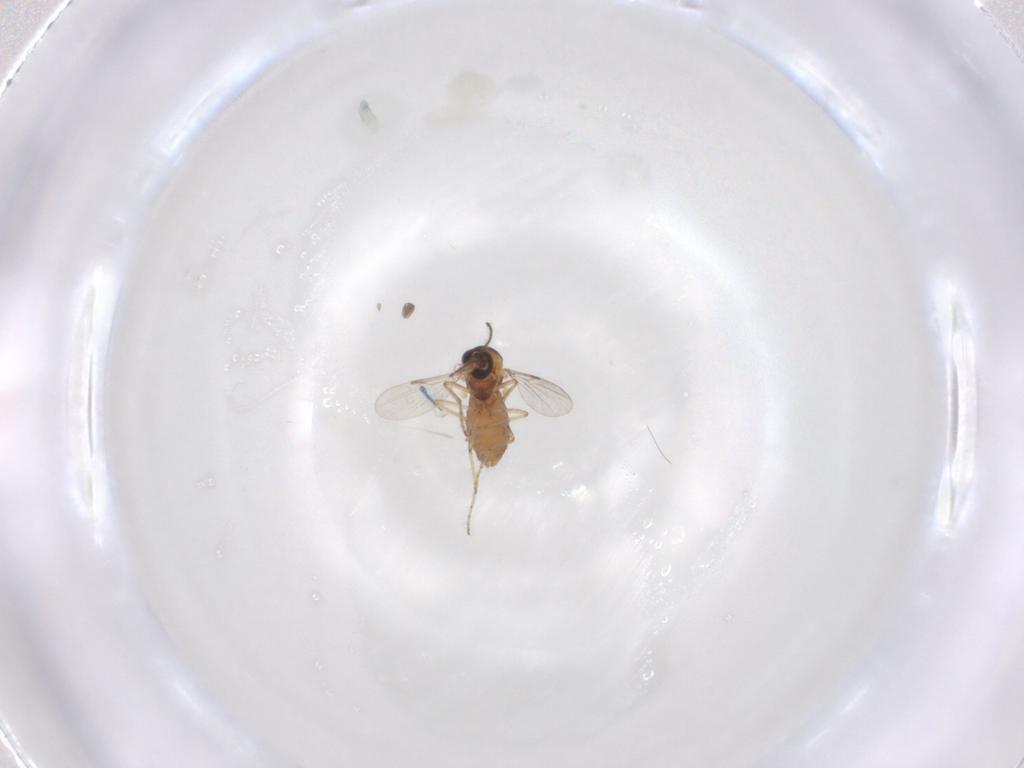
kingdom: Animalia
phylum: Arthropoda
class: Insecta
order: Diptera
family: Ceratopogonidae
